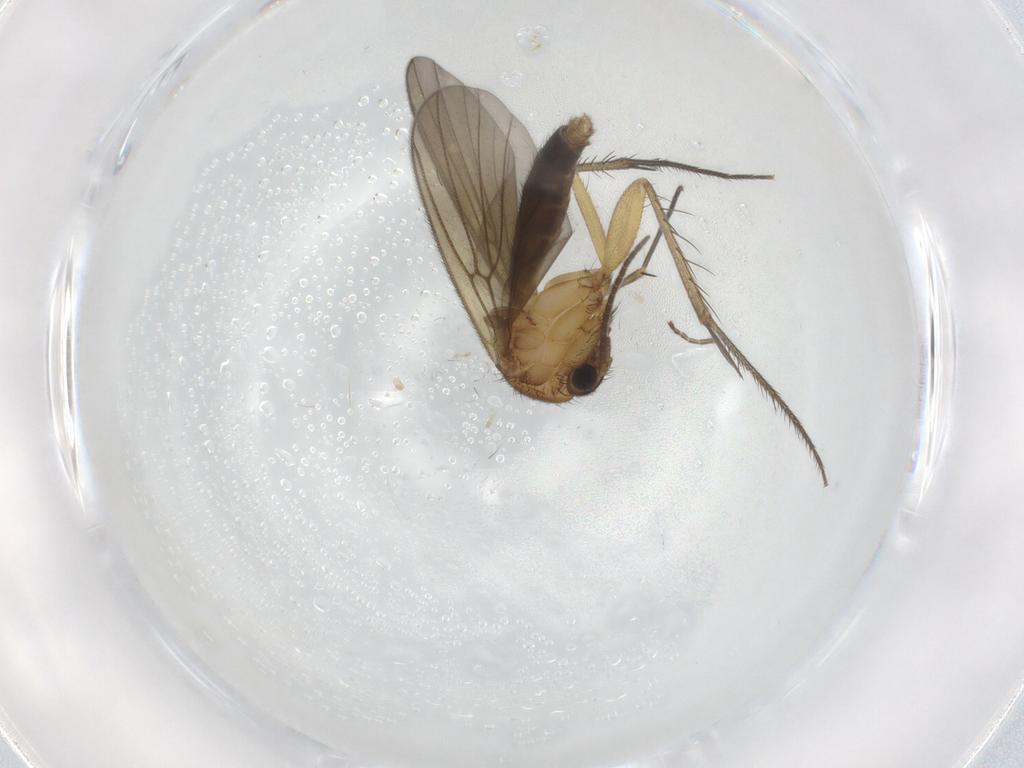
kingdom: Animalia
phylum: Arthropoda
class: Insecta
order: Diptera
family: Mycetophilidae
